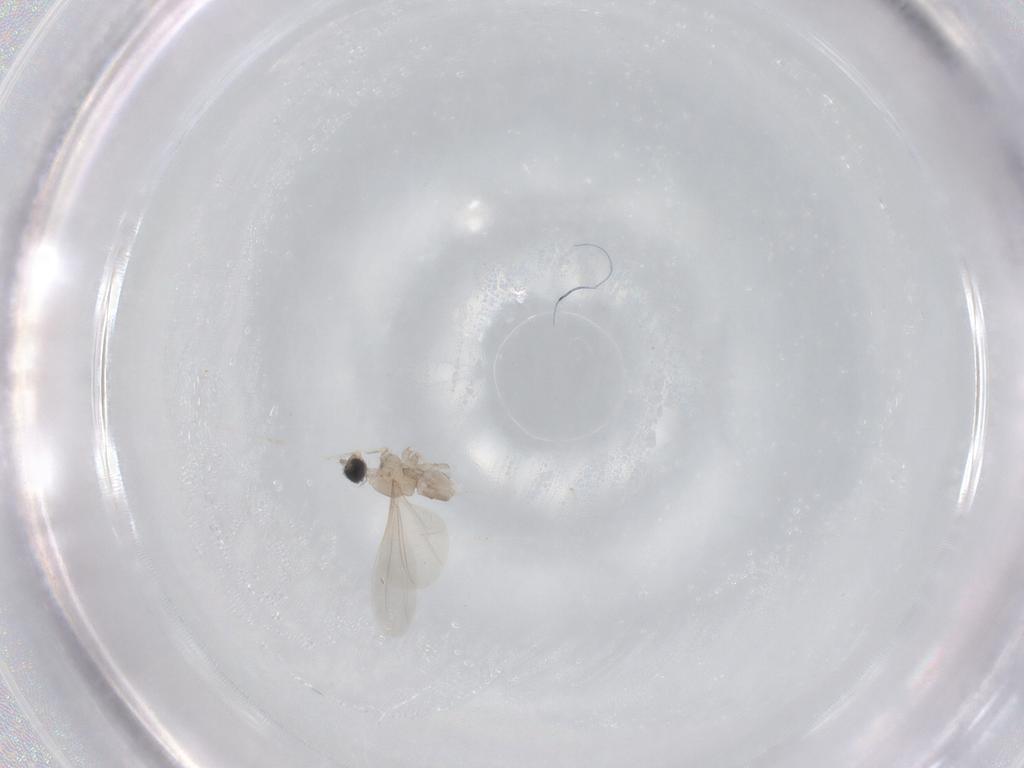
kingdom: Animalia
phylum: Arthropoda
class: Insecta
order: Diptera
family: Cecidomyiidae
